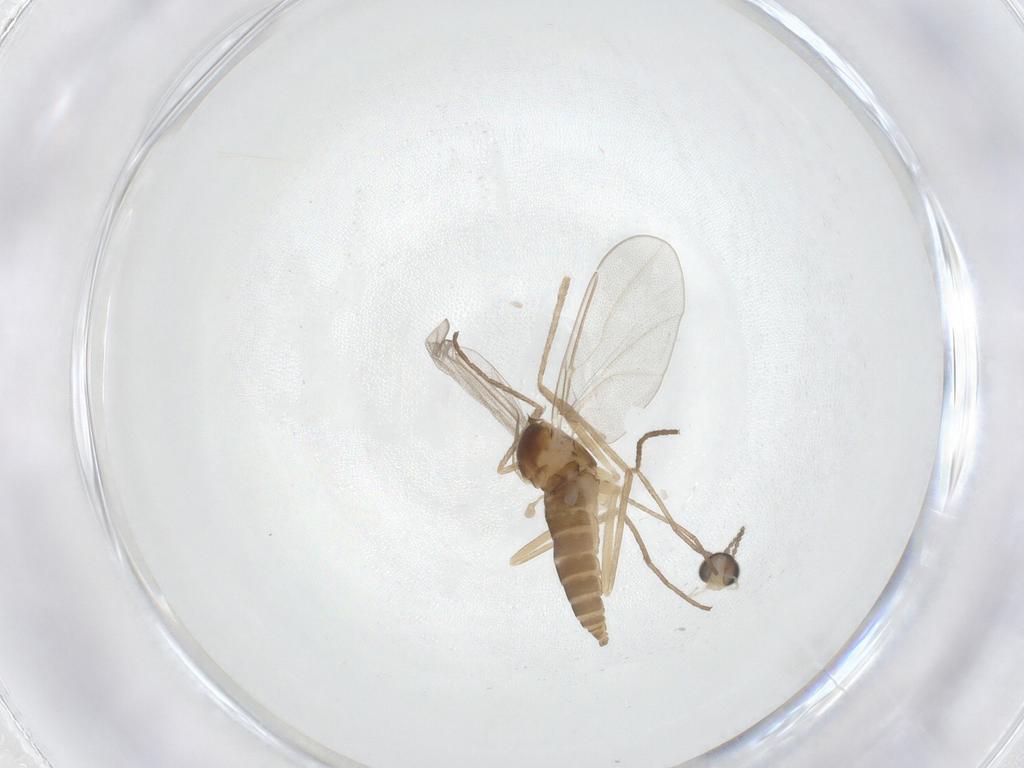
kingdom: Animalia
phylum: Arthropoda
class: Insecta
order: Diptera
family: Cecidomyiidae
